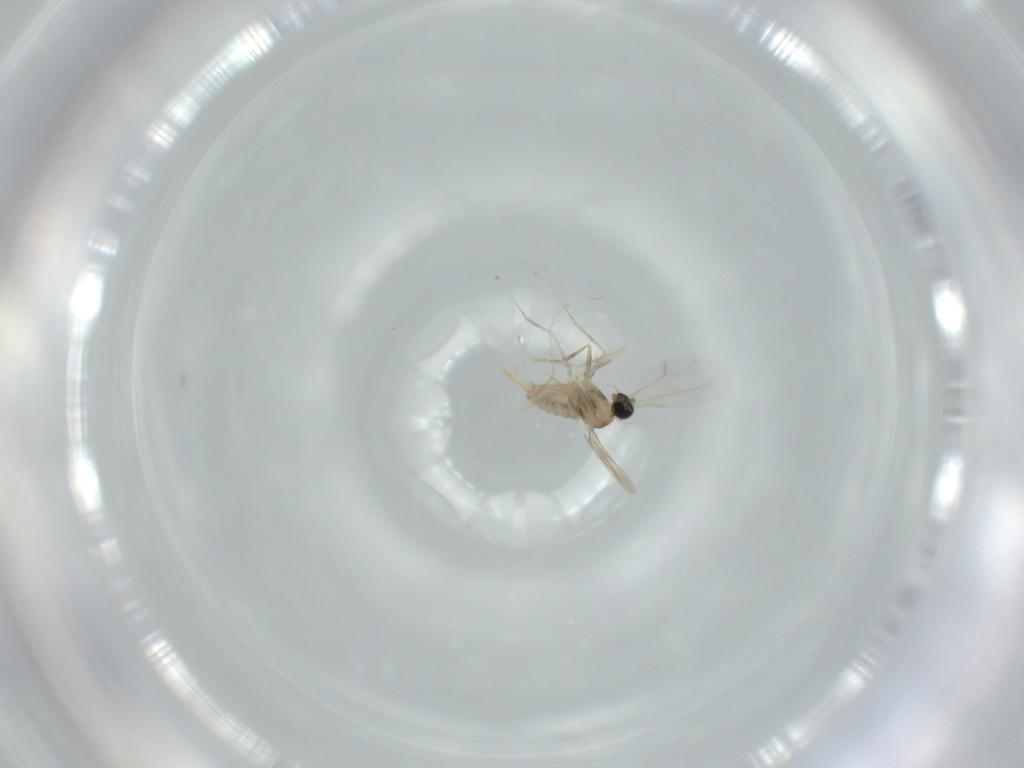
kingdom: Animalia
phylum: Arthropoda
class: Insecta
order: Diptera
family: Cecidomyiidae
